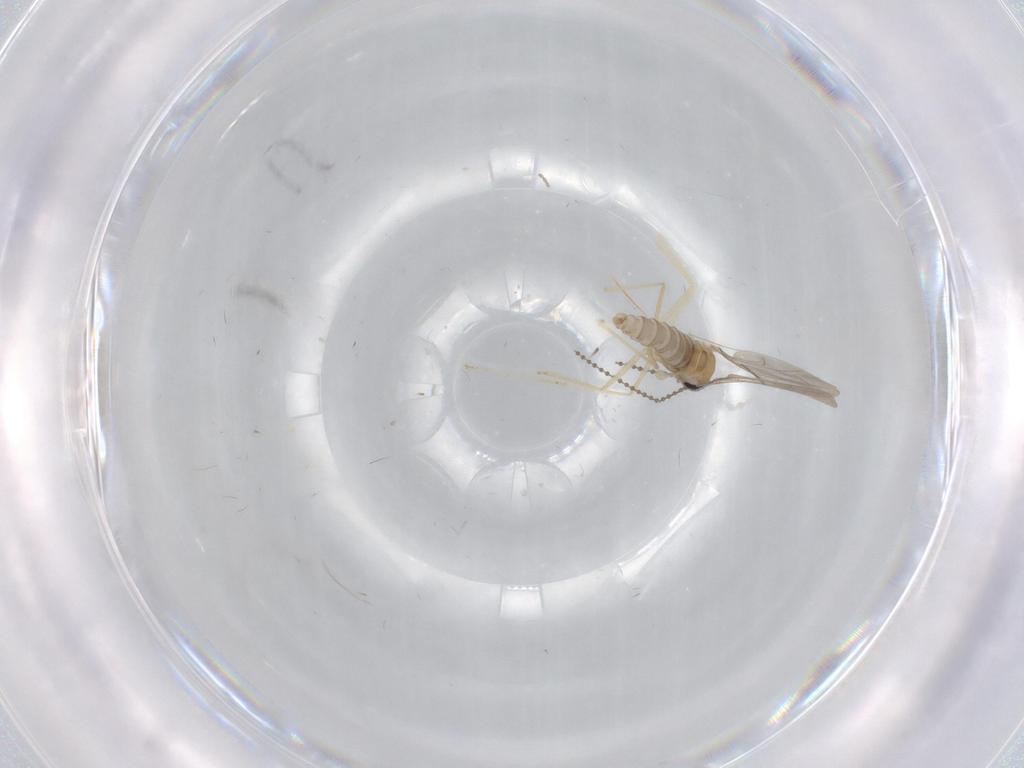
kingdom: Animalia
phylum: Arthropoda
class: Insecta
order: Diptera
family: Cecidomyiidae
